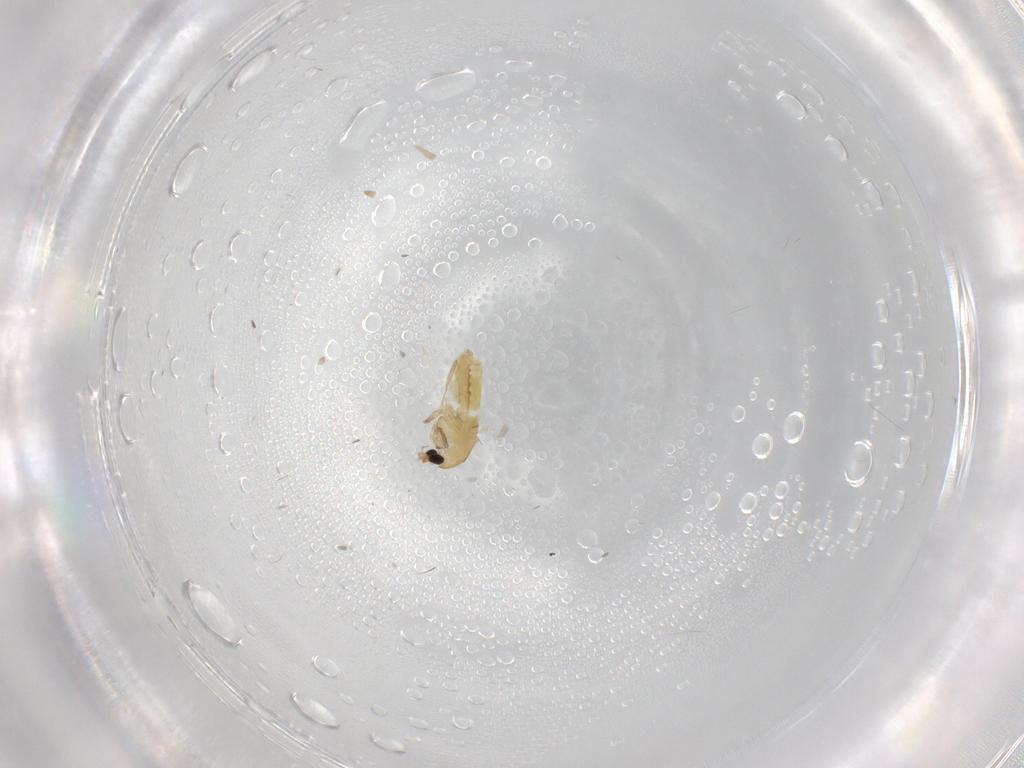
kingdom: Animalia
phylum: Arthropoda
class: Insecta
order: Diptera
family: Chironomidae
